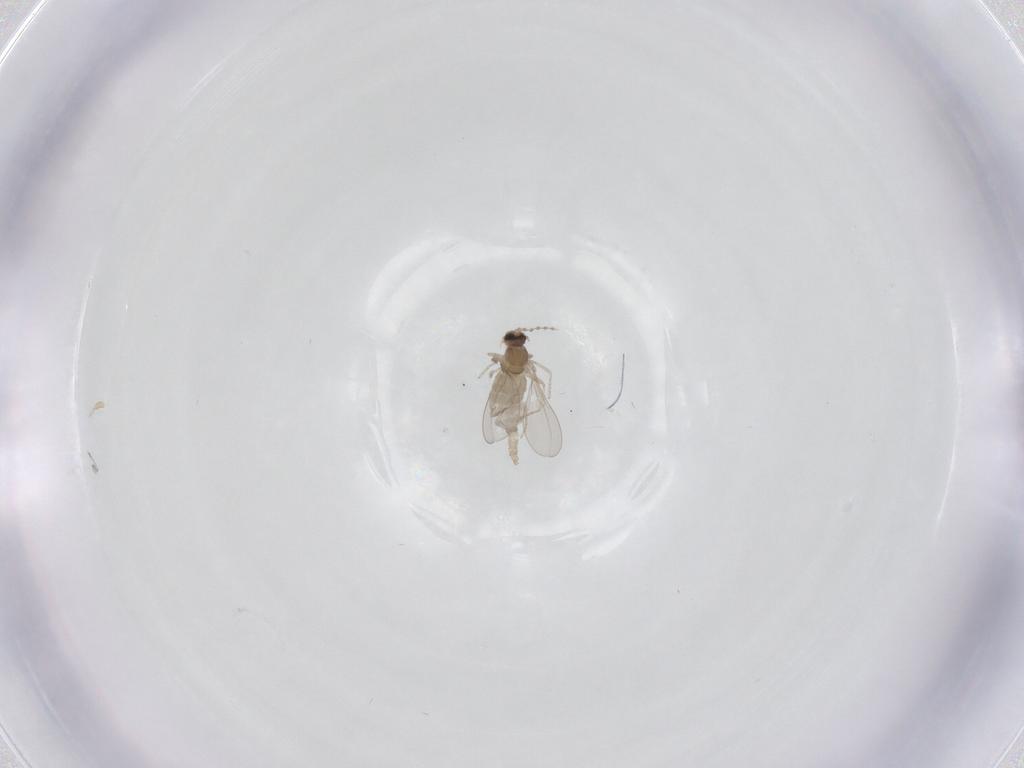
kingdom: Animalia
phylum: Arthropoda
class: Insecta
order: Diptera
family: Cecidomyiidae
